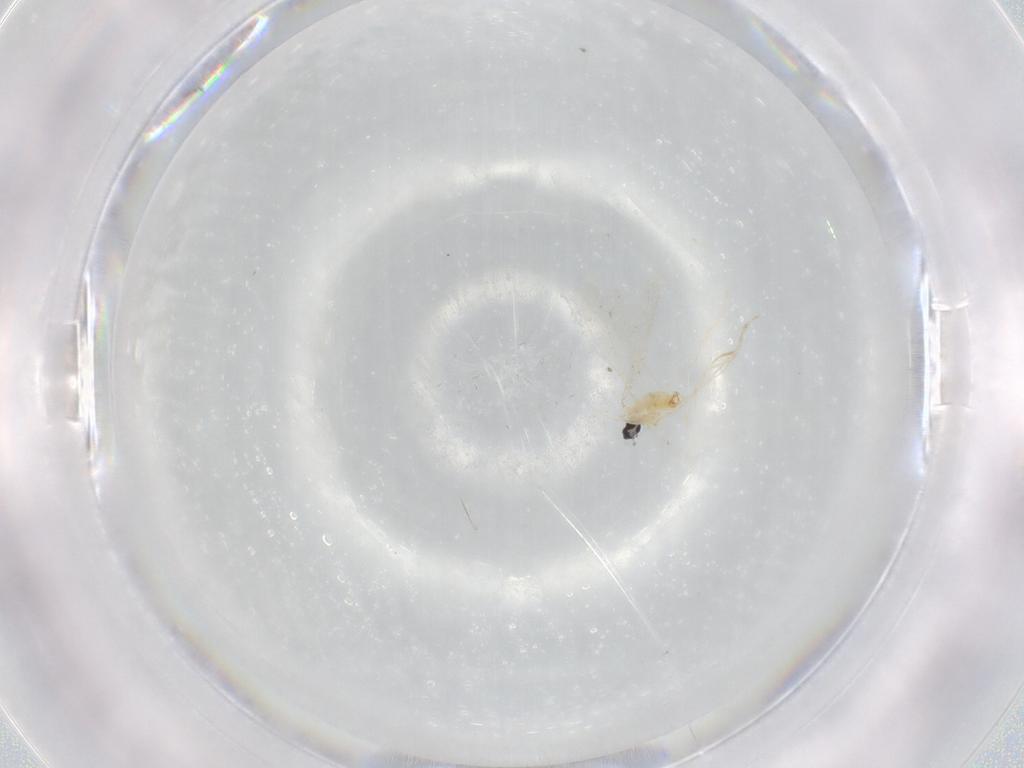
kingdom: Animalia
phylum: Arthropoda
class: Insecta
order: Diptera
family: Cecidomyiidae
